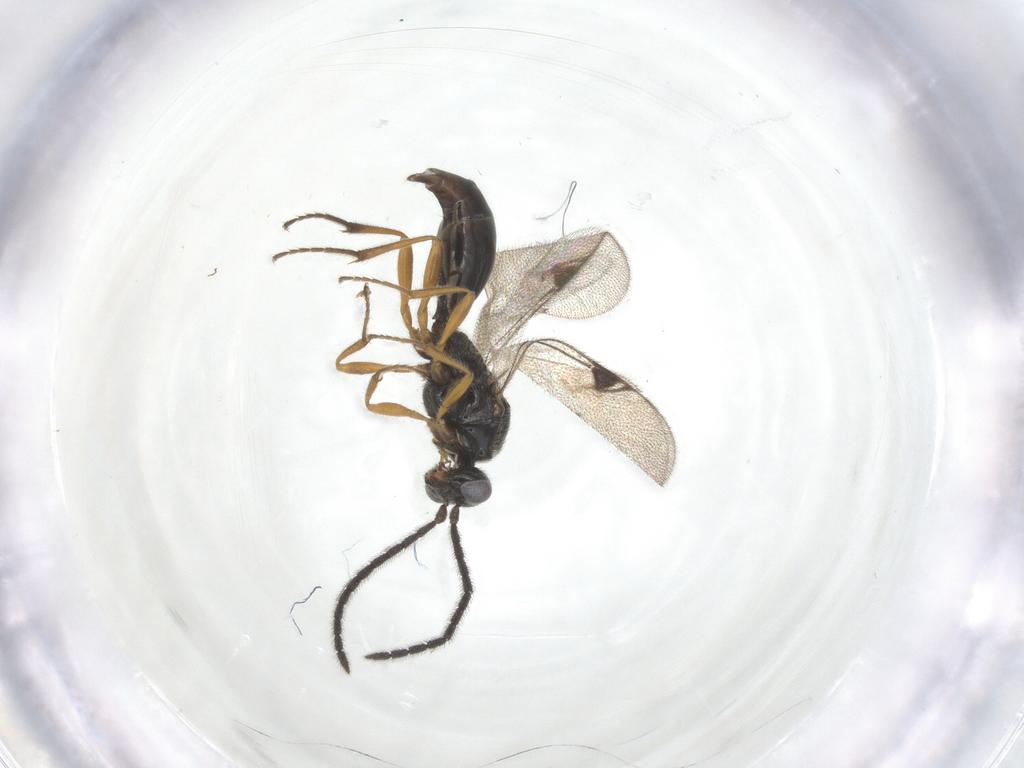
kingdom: Animalia
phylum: Arthropoda
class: Insecta
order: Hymenoptera
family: Proctotrupidae
